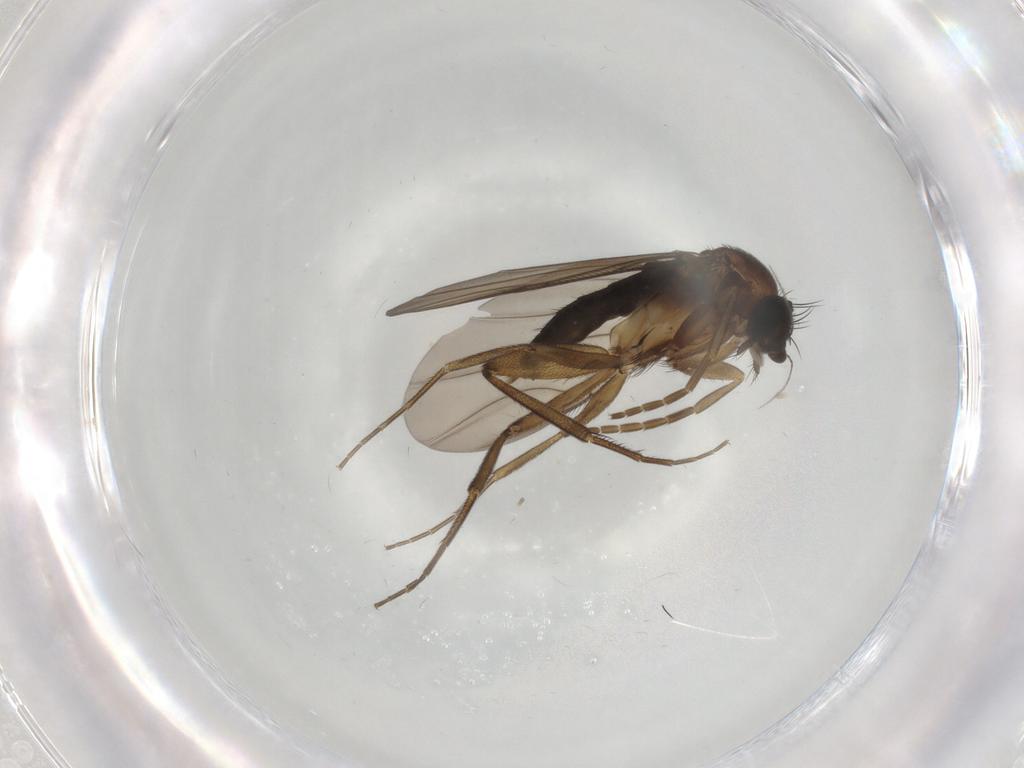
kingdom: Animalia
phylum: Arthropoda
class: Insecta
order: Diptera
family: Phoridae
